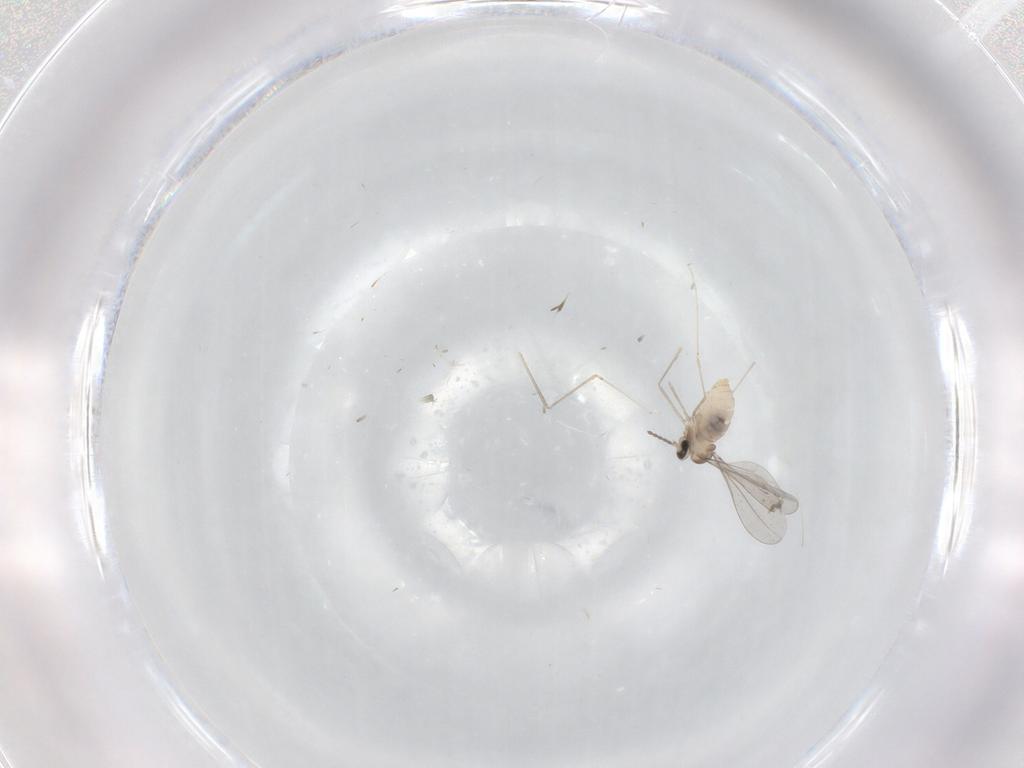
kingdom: Animalia
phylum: Arthropoda
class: Insecta
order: Diptera
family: Cecidomyiidae
